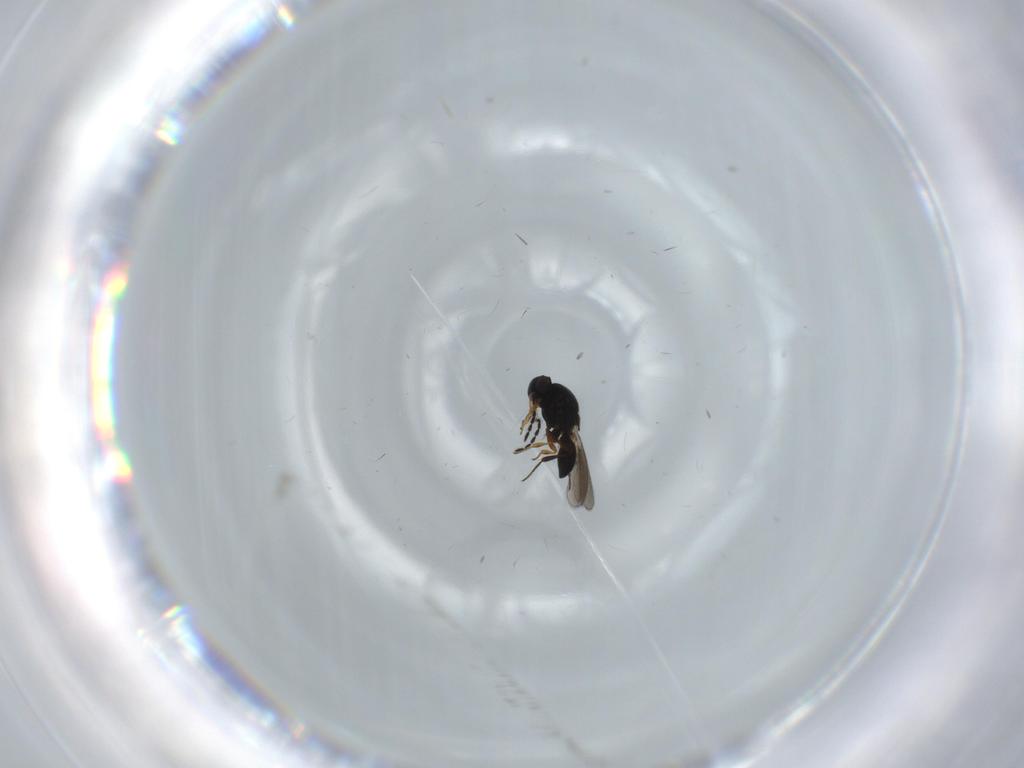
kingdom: Animalia
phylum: Arthropoda
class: Insecta
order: Hymenoptera
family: Platygastridae
